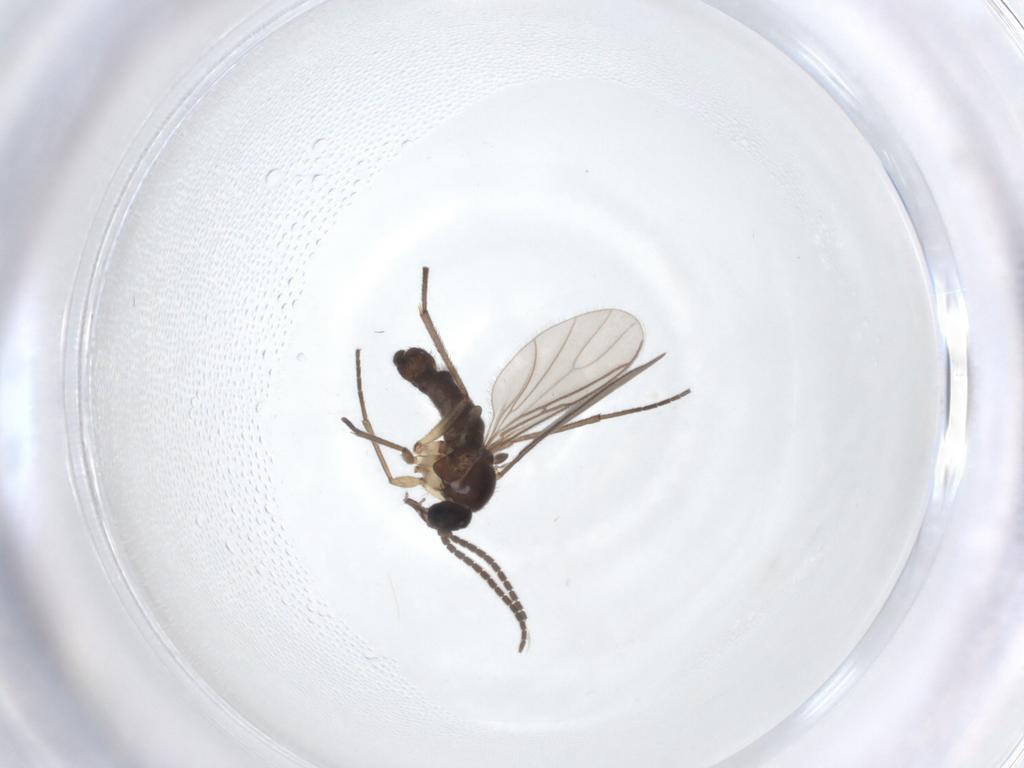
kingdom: Animalia
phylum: Arthropoda
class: Insecta
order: Diptera
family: Sciaridae
